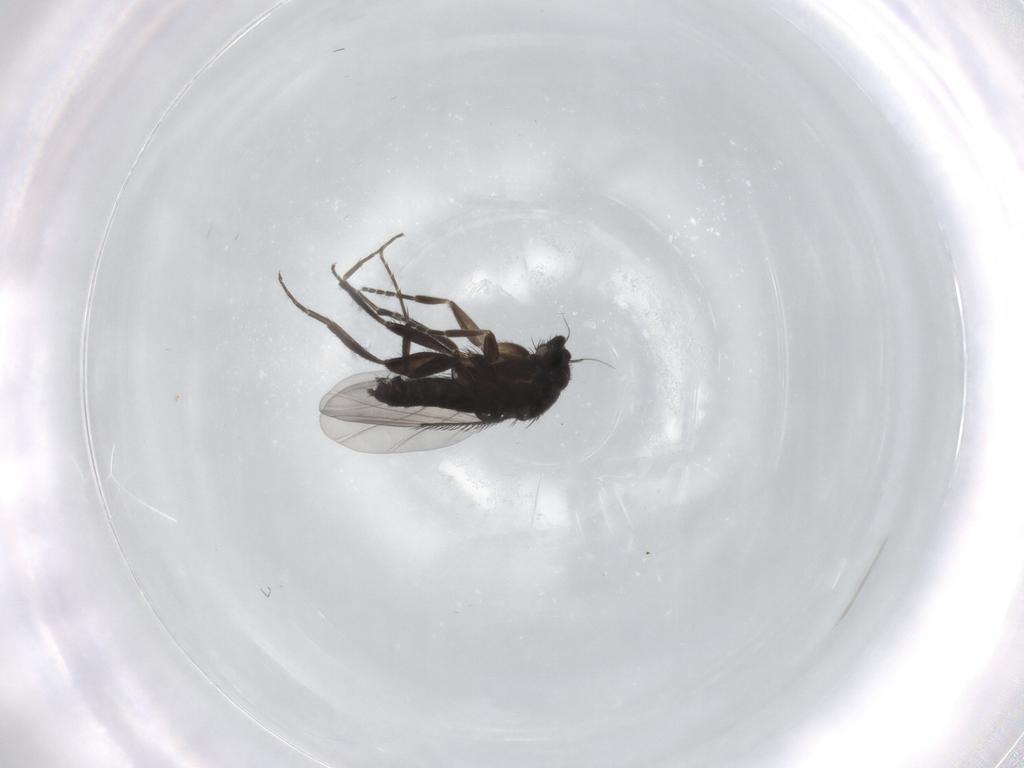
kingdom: Animalia
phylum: Arthropoda
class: Insecta
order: Diptera
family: Phoridae
